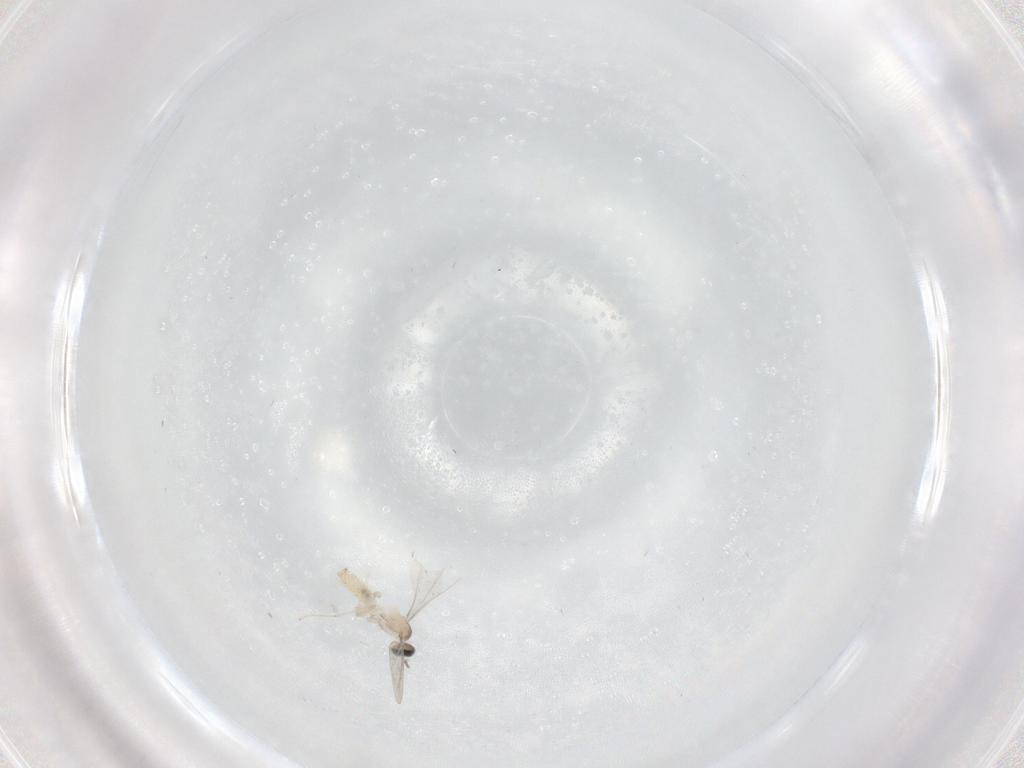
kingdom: Animalia
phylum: Arthropoda
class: Insecta
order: Diptera
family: Cecidomyiidae
